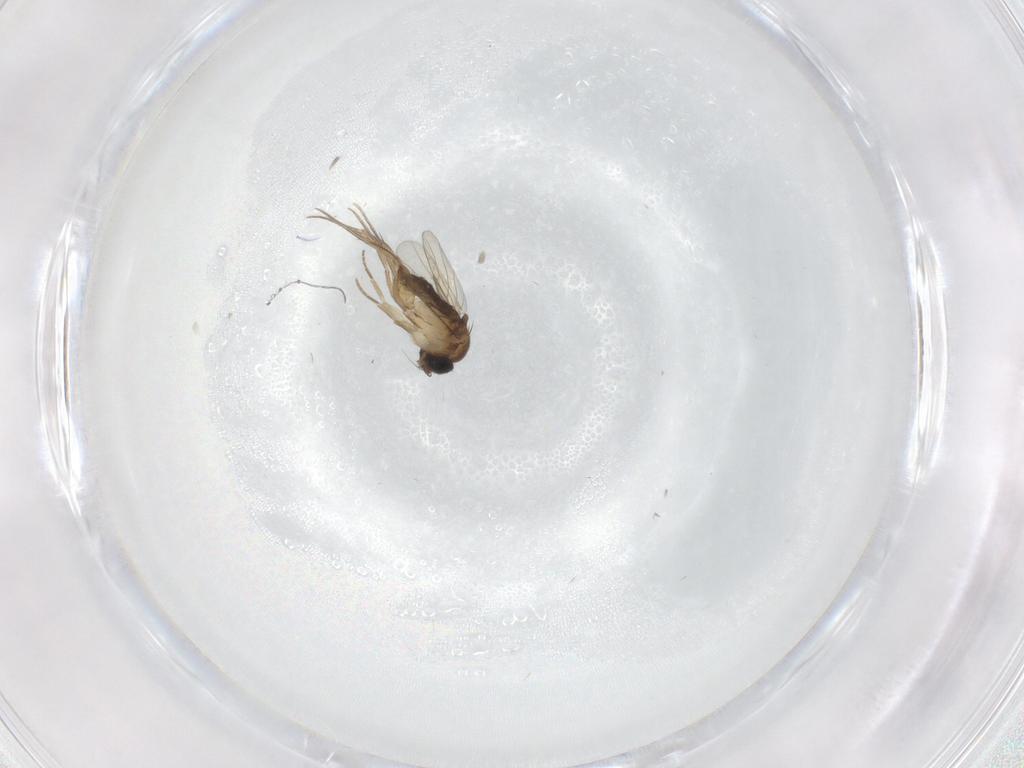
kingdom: Animalia
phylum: Arthropoda
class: Insecta
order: Diptera
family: Phoridae
